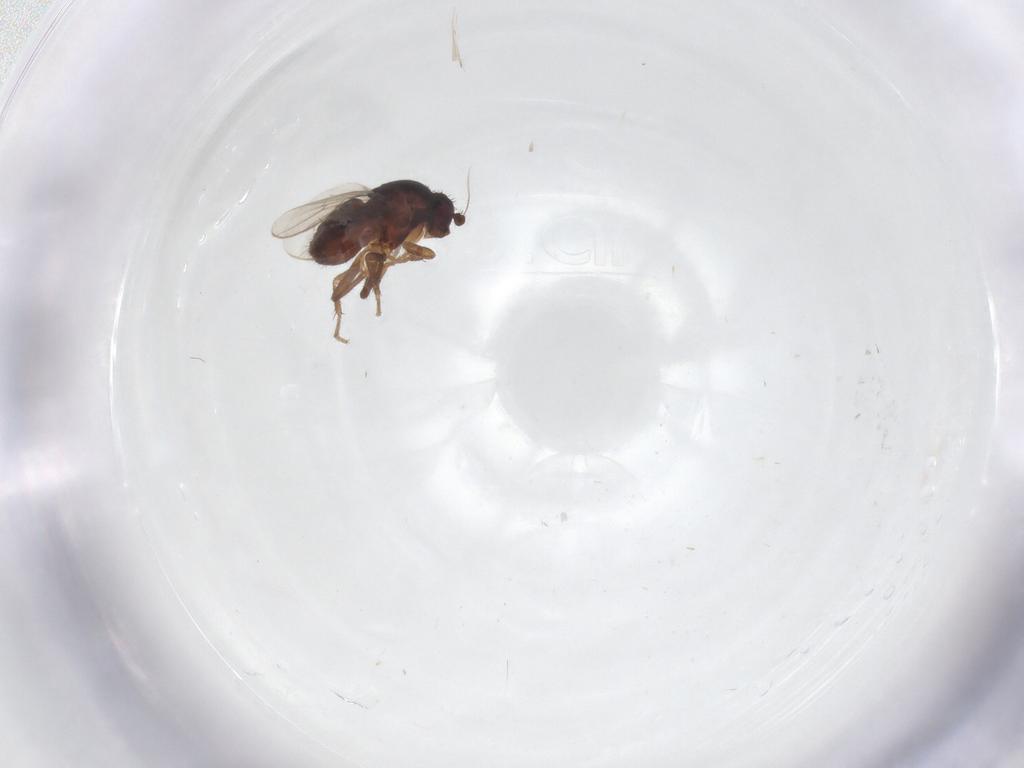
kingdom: Animalia
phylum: Arthropoda
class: Insecta
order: Diptera
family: Sphaeroceridae
